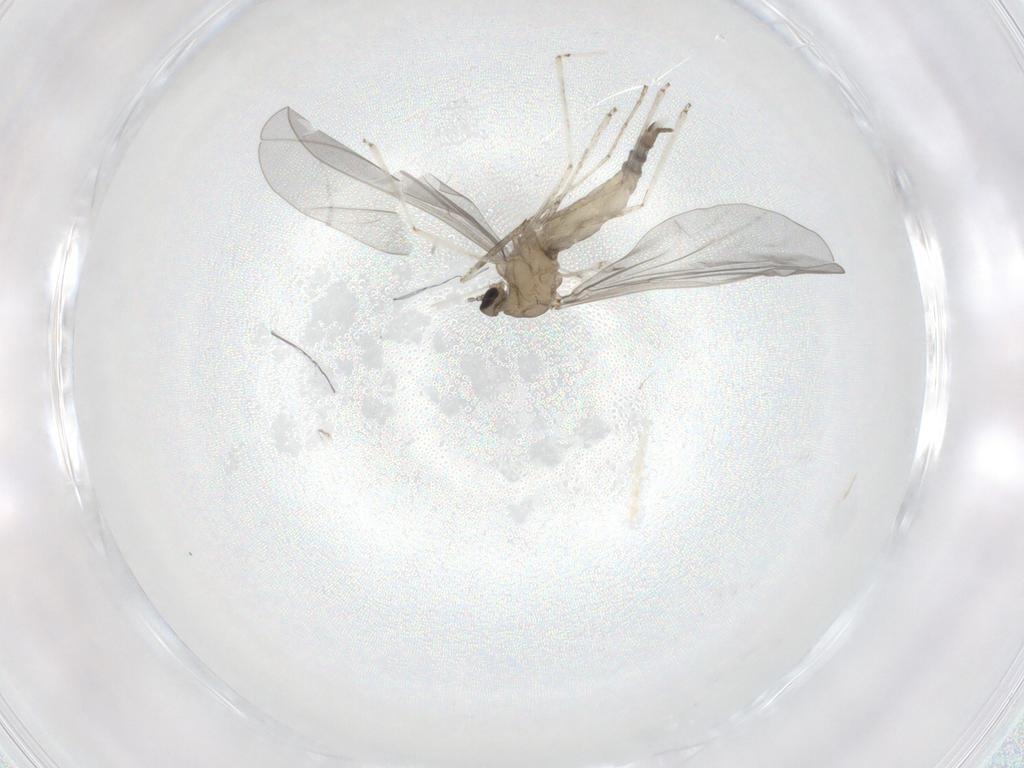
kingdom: Animalia
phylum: Arthropoda
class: Insecta
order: Diptera
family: Cecidomyiidae
